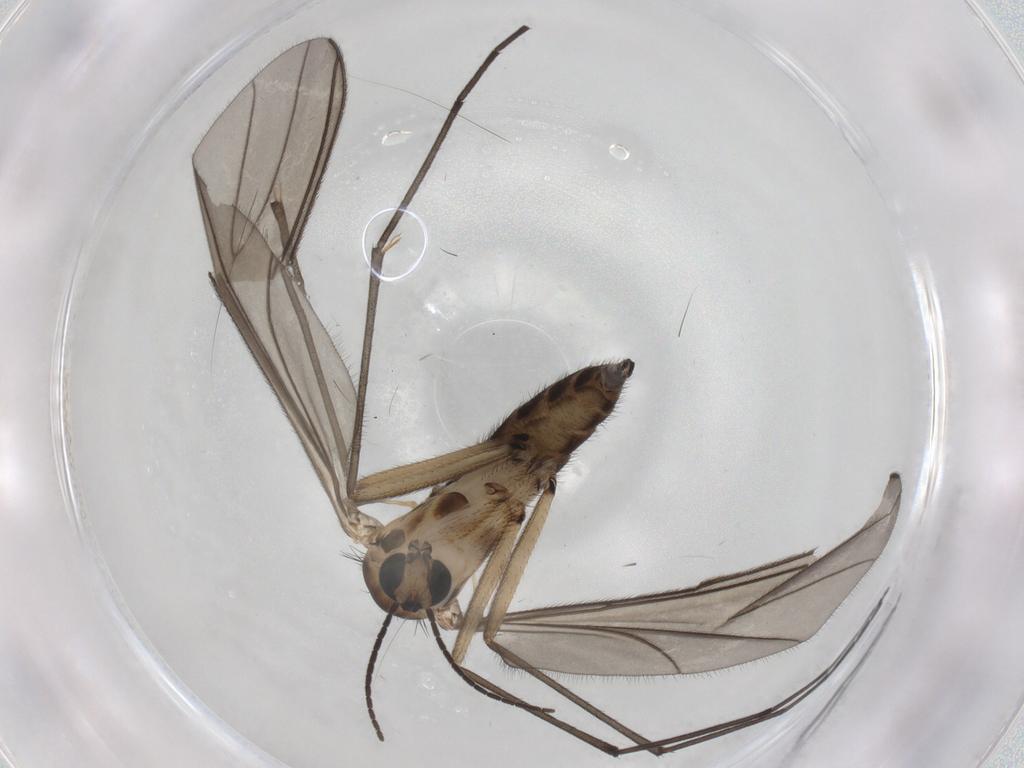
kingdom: Animalia
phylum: Arthropoda
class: Insecta
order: Diptera
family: Sciaridae
